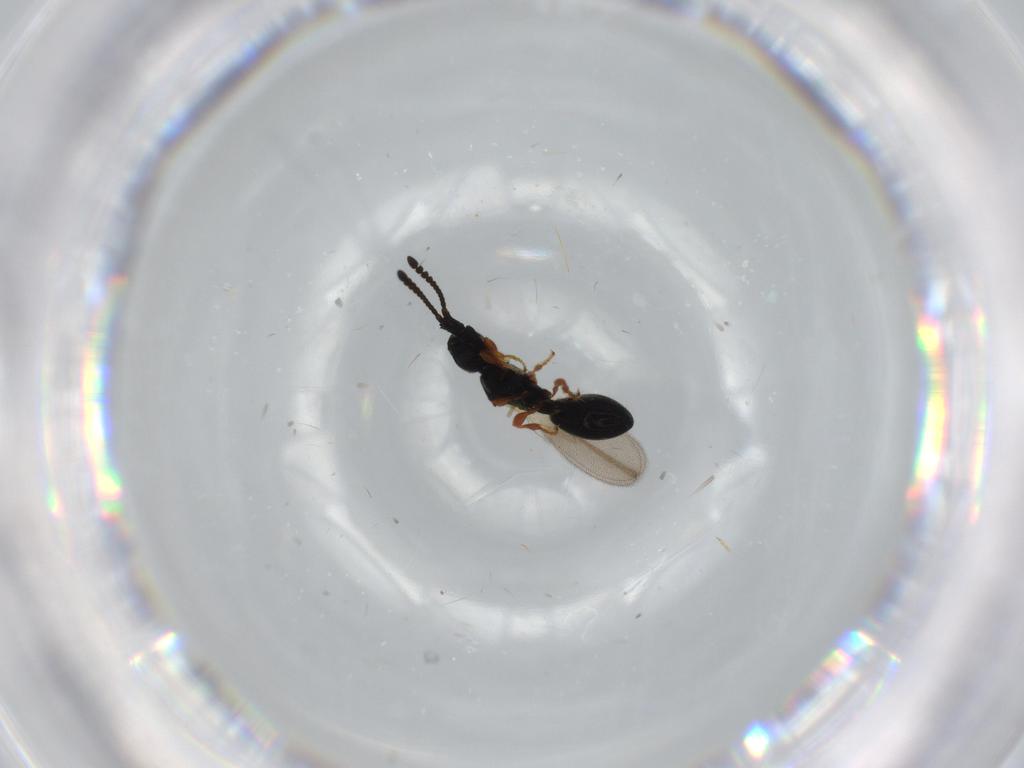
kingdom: Animalia
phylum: Arthropoda
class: Insecta
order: Hymenoptera
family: Diapriidae
